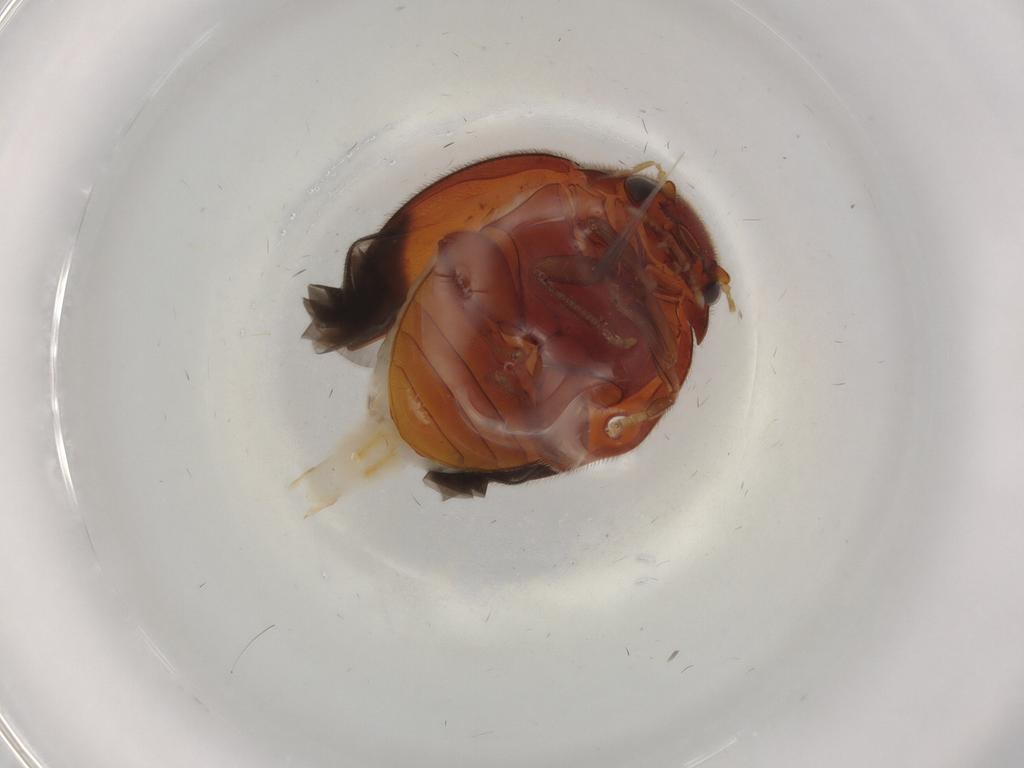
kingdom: Animalia
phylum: Arthropoda
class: Insecta
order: Coleoptera
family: Scirtidae
